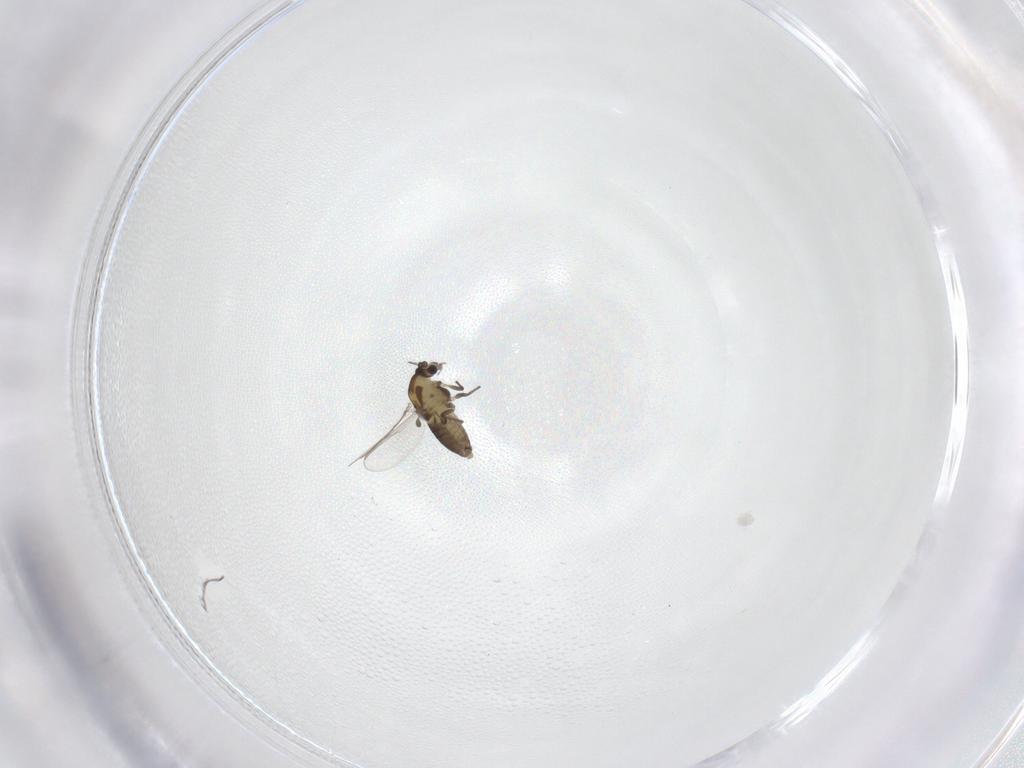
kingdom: Animalia
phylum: Arthropoda
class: Insecta
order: Diptera
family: Chironomidae
